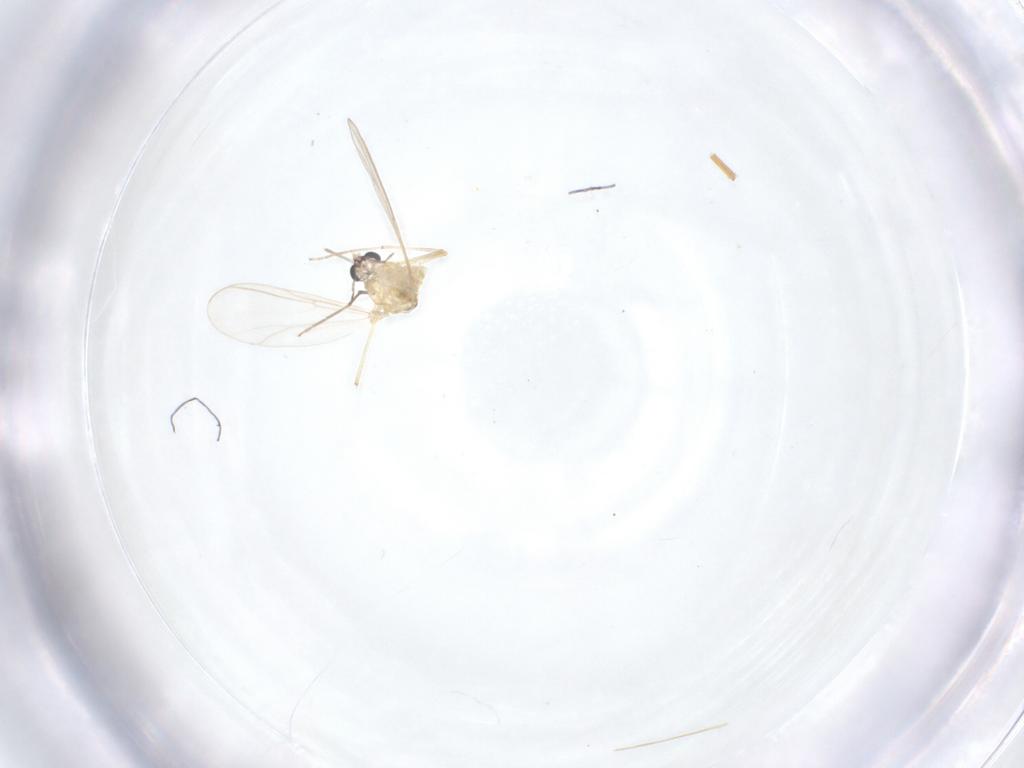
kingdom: Animalia
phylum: Arthropoda
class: Insecta
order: Diptera
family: Chironomidae
